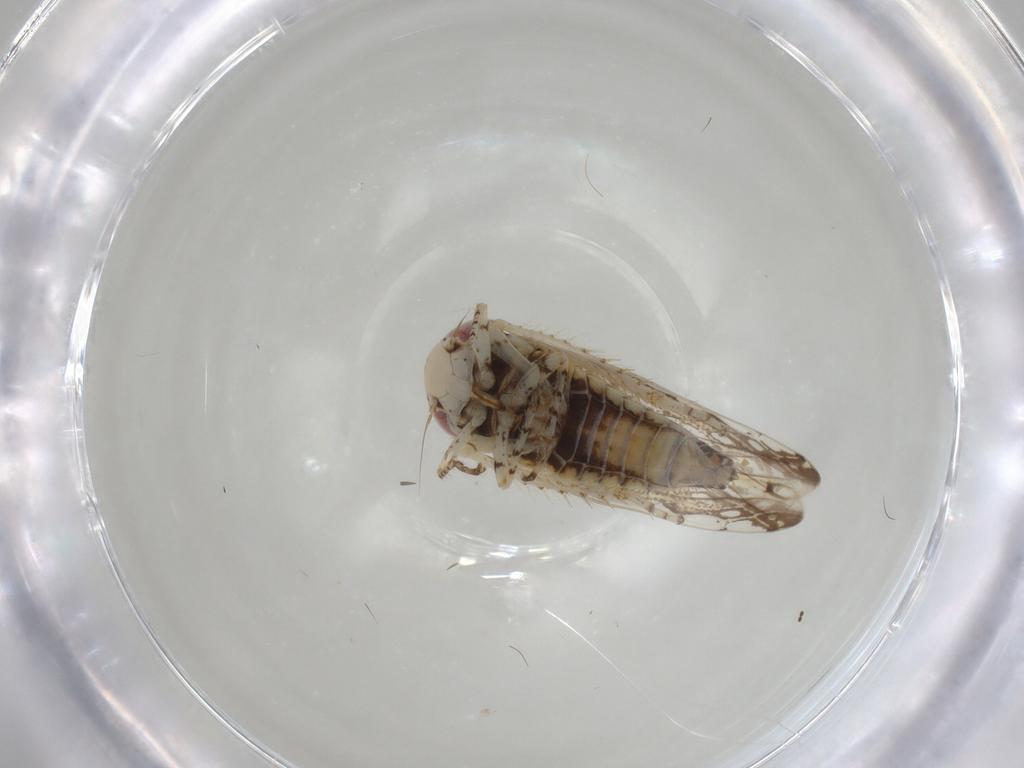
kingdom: Animalia
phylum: Arthropoda
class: Insecta
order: Hemiptera
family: Cicadellidae
